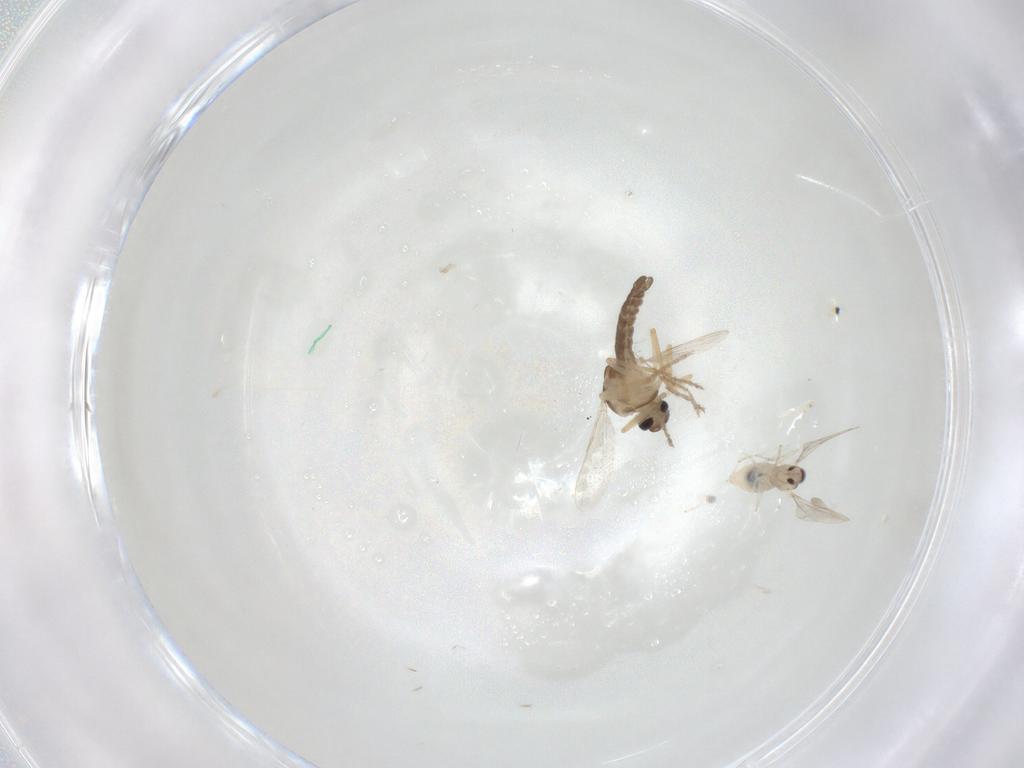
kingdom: Animalia
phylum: Arthropoda
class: Insecta
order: Diptera
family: Ceratopogonidae
